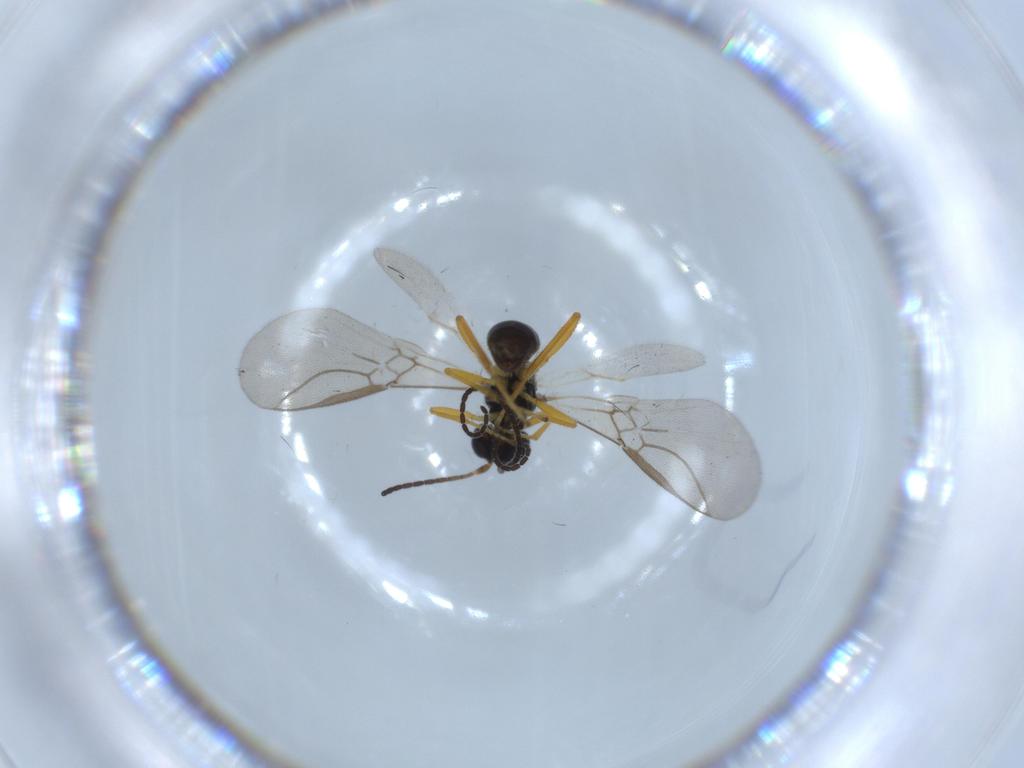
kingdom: Animalia
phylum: Arthropoda
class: Insecta
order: Hymenoptera
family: Braconidae
